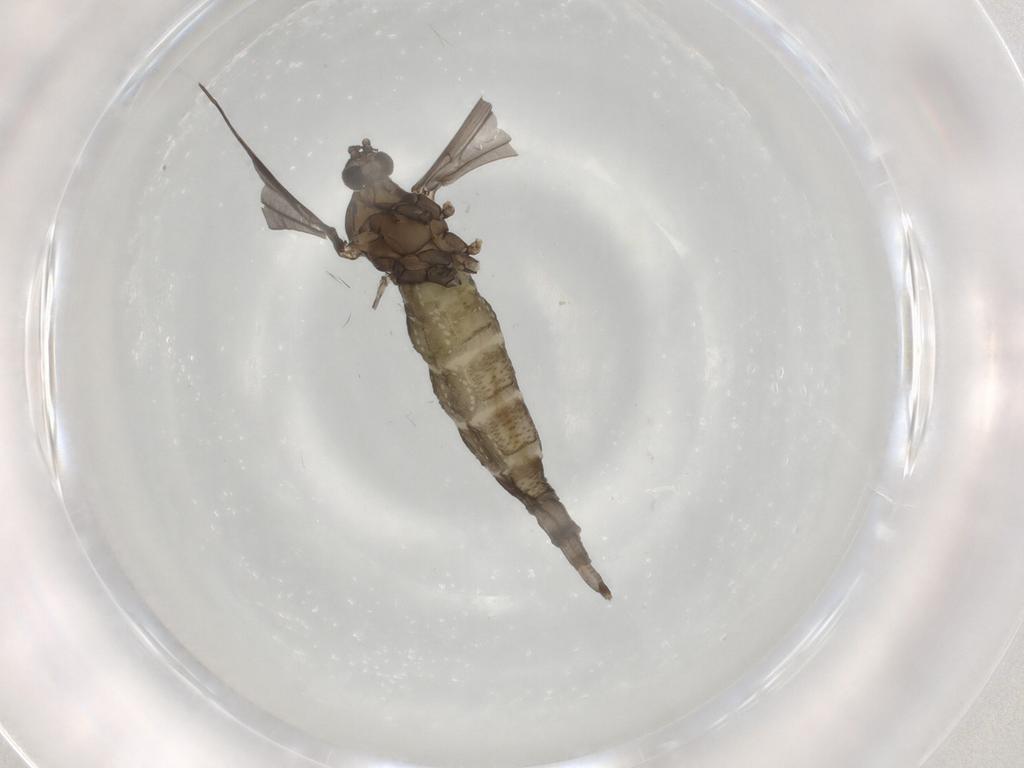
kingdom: Animalia
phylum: Arthropoda
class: Insecta
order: Diptera
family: Cecidomyiidae
